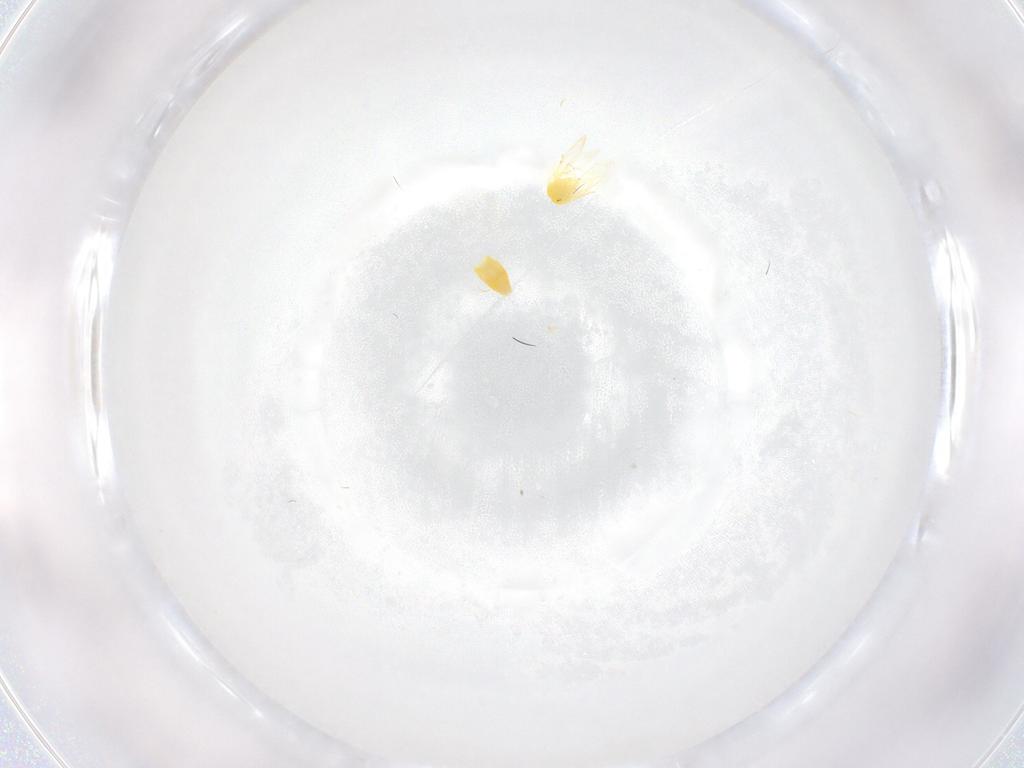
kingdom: Animalia
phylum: Arthropoda
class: Insecta
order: Hemiptera
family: Aleyrodidae
